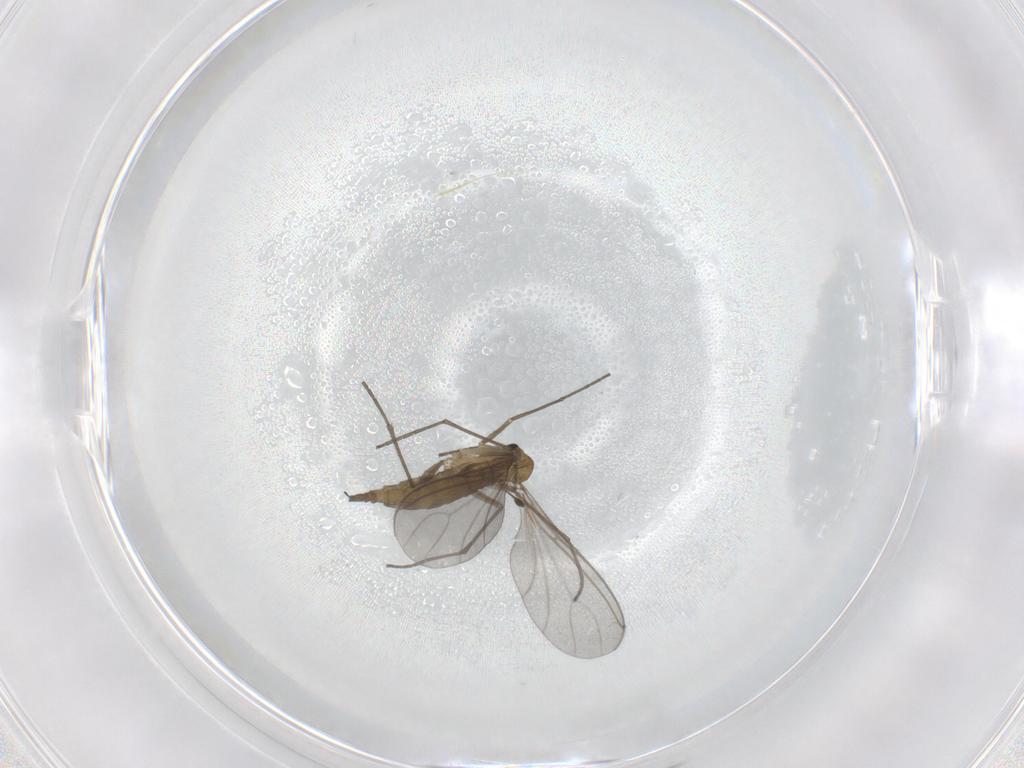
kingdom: Animalia
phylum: Arthropoda
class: Insecta
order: Diptera
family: Sciaridae
